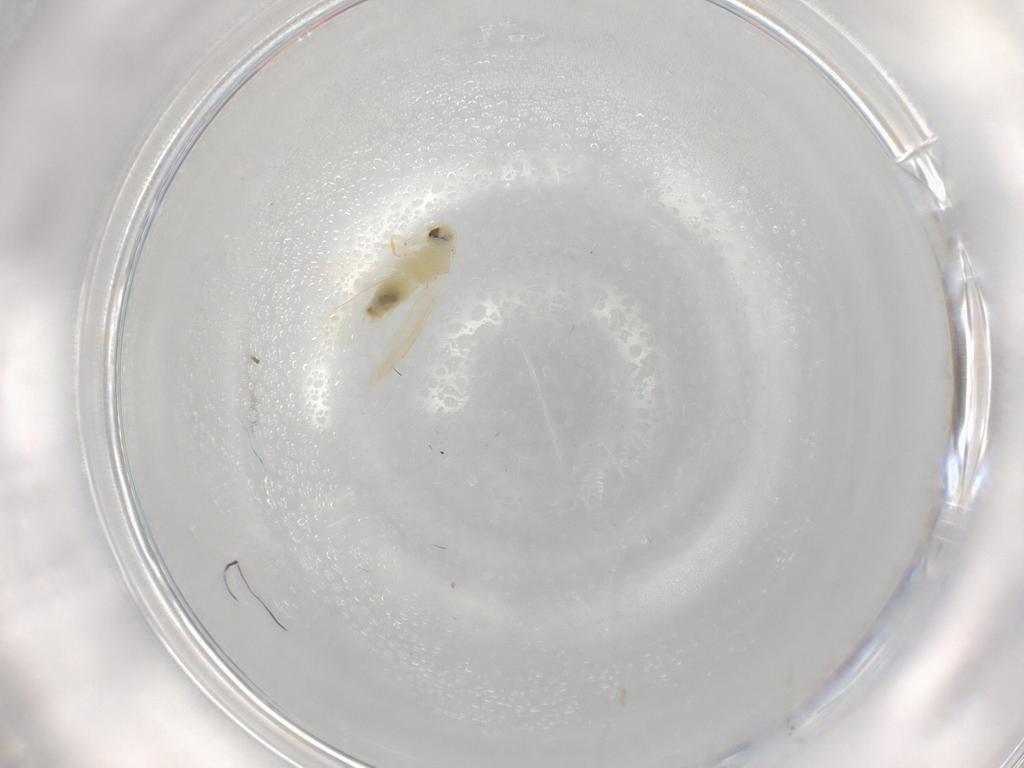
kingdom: Animalia
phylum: Arthropoda
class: Insecta
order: Hemiptera
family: Aleyrodidae
